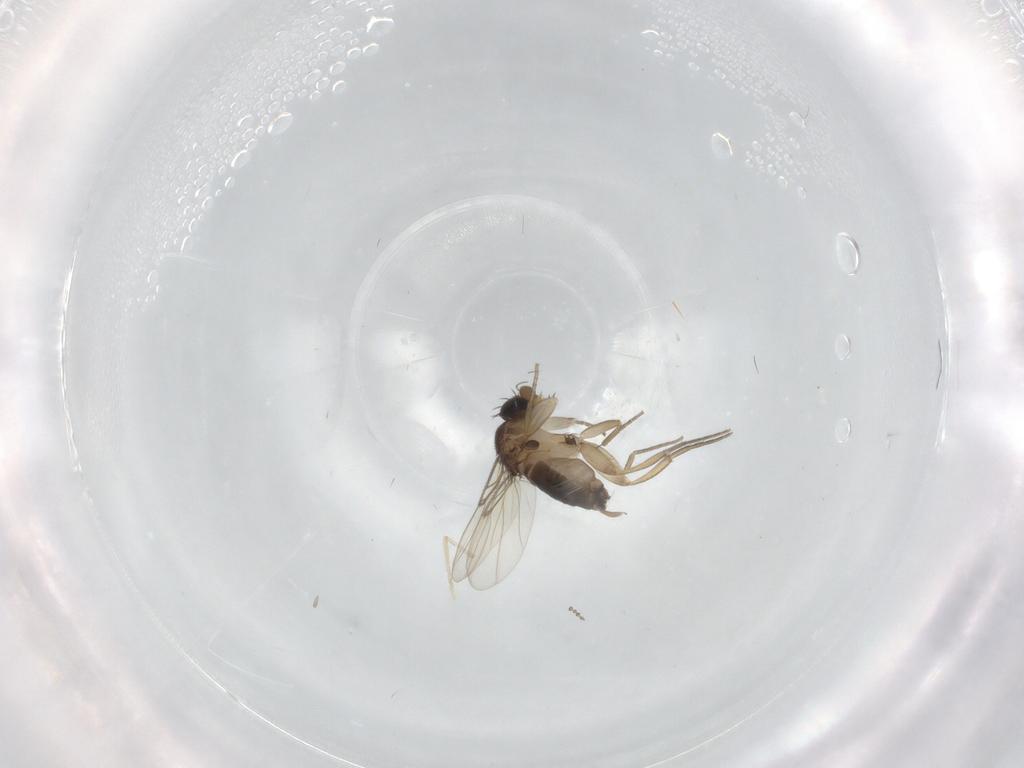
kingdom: Animalia
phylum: Arthropoda
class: Insecta
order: Diptera
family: Chironomidae
